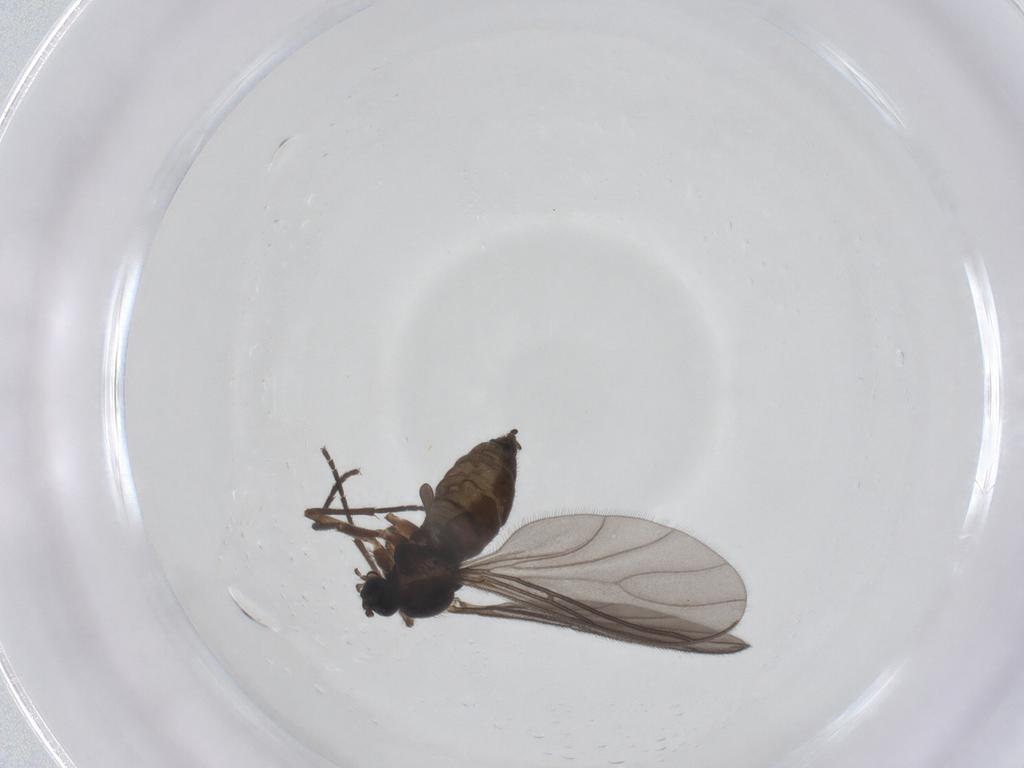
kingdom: Animalia
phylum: Arthropoda
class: Insecta
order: Diptera
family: Sciaridae
